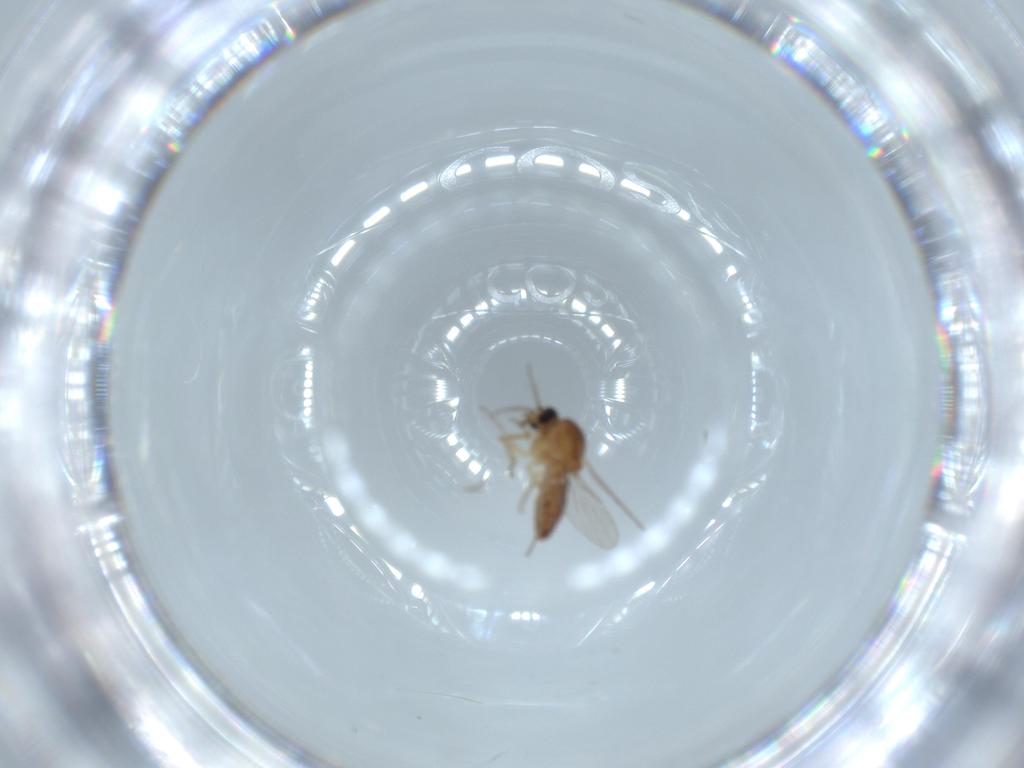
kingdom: Animalia
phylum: Arthropoda
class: Insecta
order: Diptera
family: Ceratopogonidae
